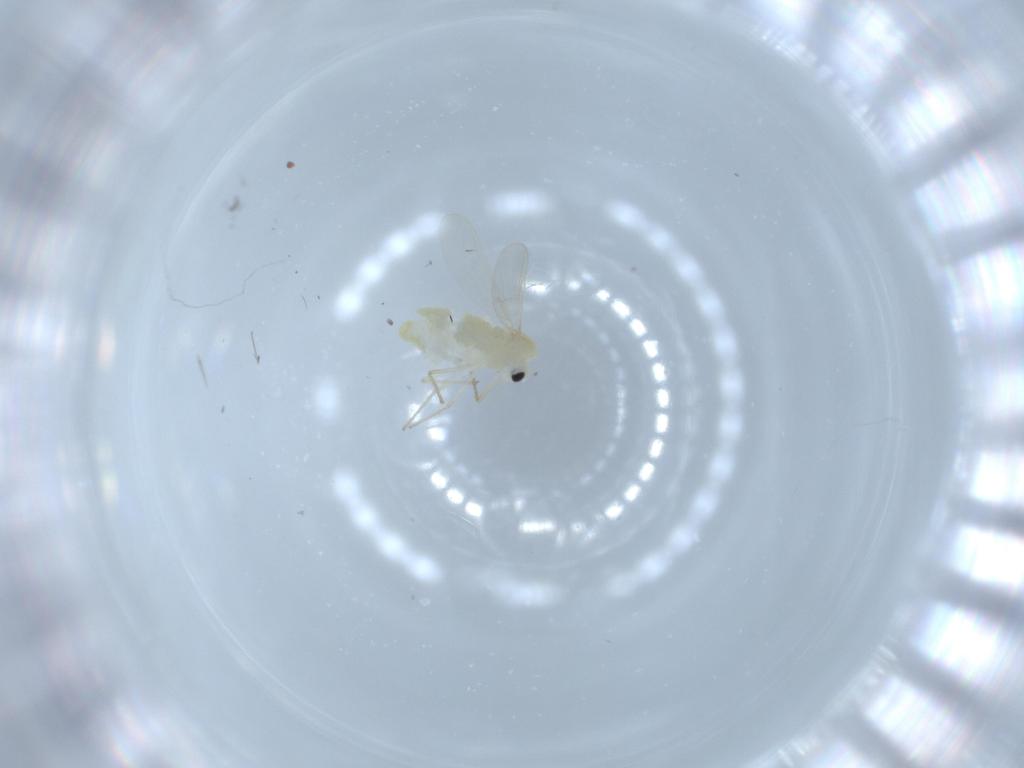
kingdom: Animalia
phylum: Arthropoda
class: Insecta
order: Diptera
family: Chironomidae
